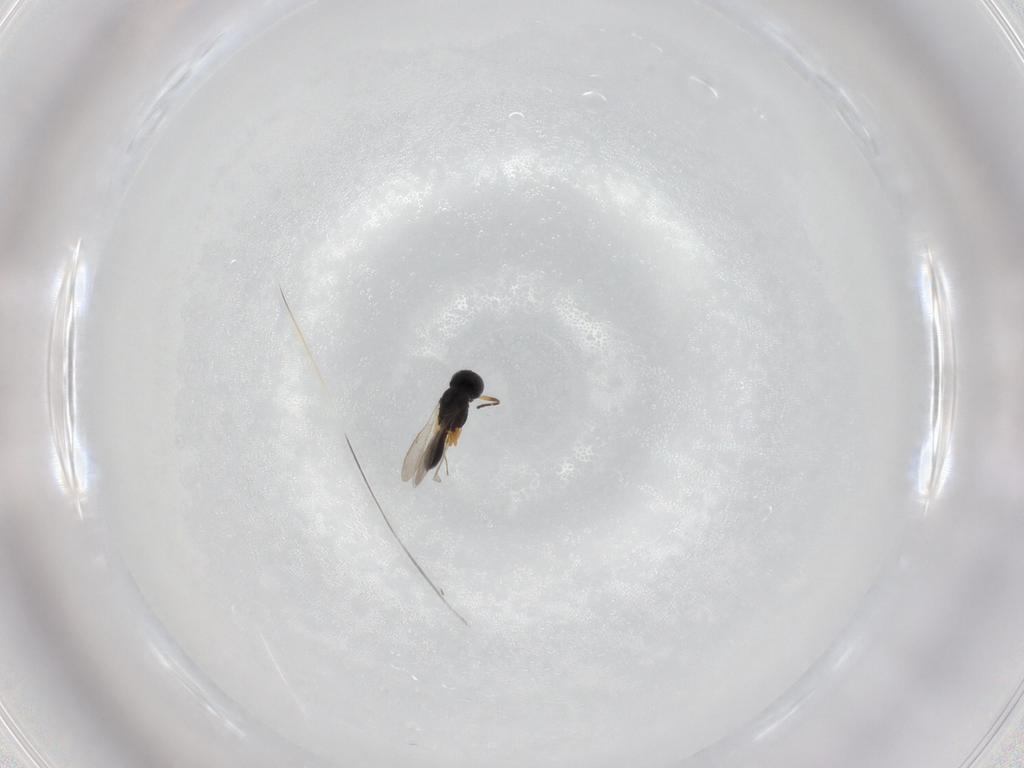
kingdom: Animalia
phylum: Arthropoda
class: Insecta
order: Hymenoptera
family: Scelionidae
